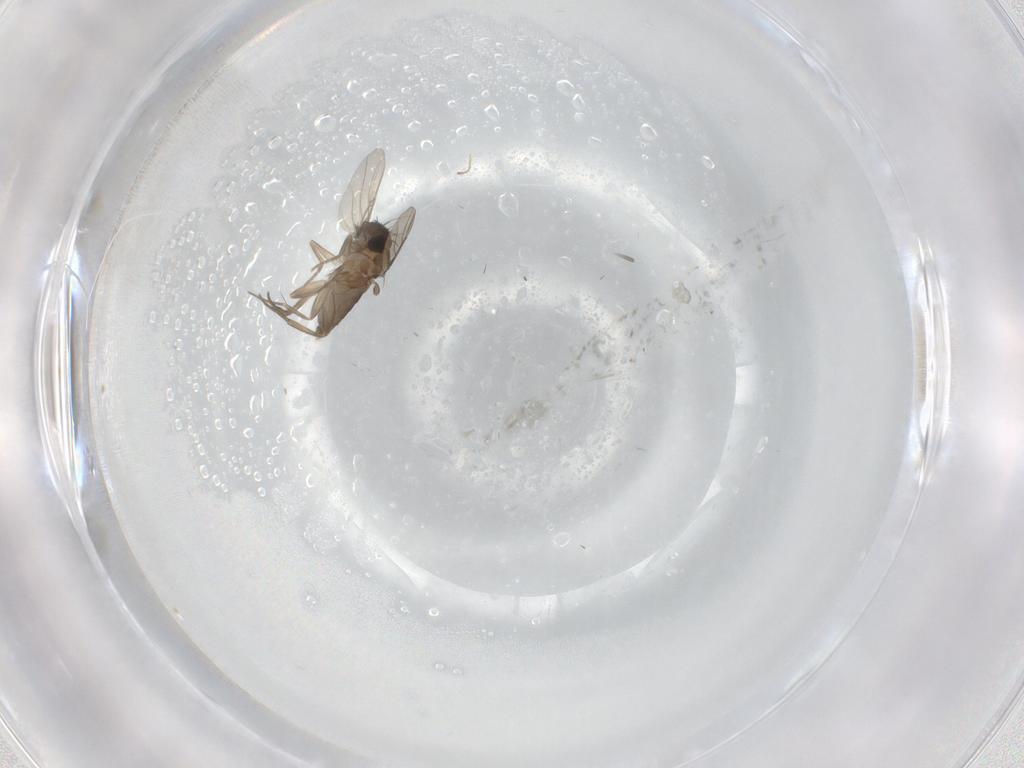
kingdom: Animalia
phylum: Arthropoda
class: Insecta
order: Diptera
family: Phoridae
